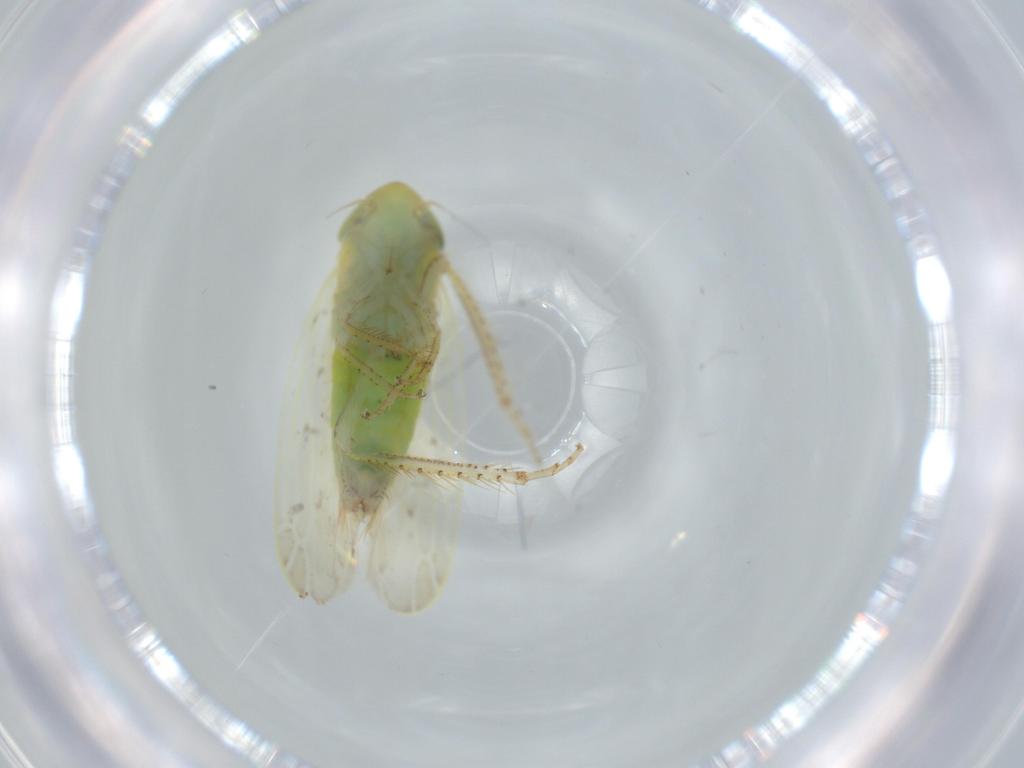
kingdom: Animalia
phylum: Arthropoda
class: Insecta
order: Hemiptera
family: Cicadellidae
